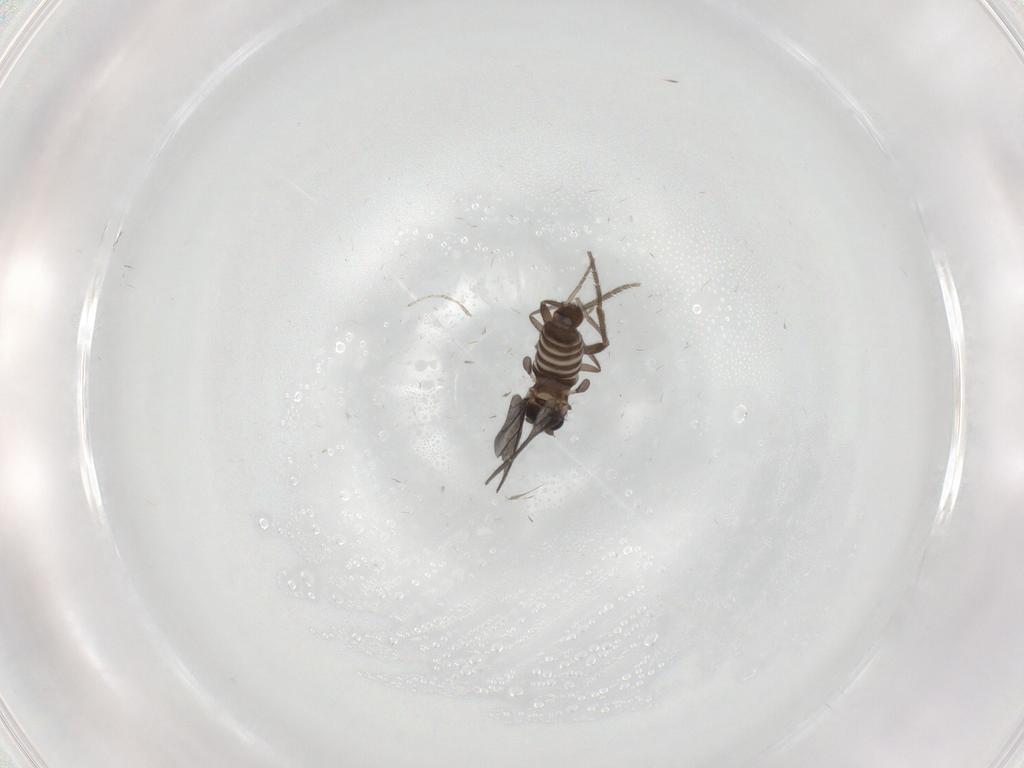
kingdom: Animalia
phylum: Arthropoda
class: Insecta
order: Diptera
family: Phoridae
